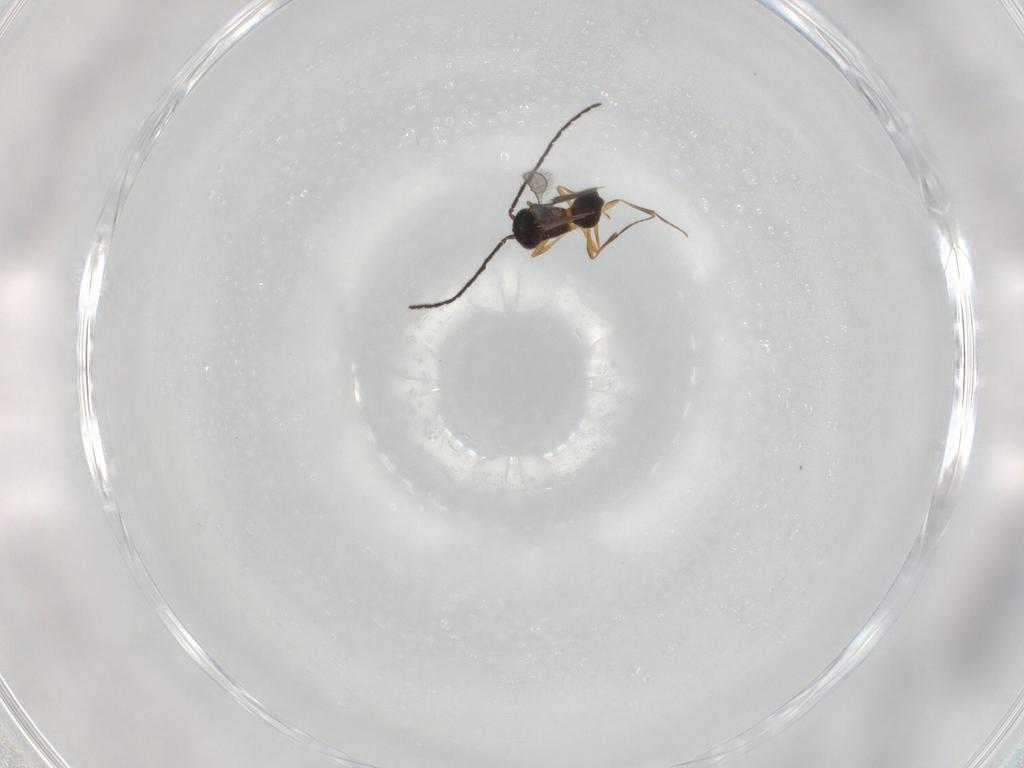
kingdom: Animalia
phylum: Arthropoda
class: Insecta
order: Hymenoptera
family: Scelionidae
